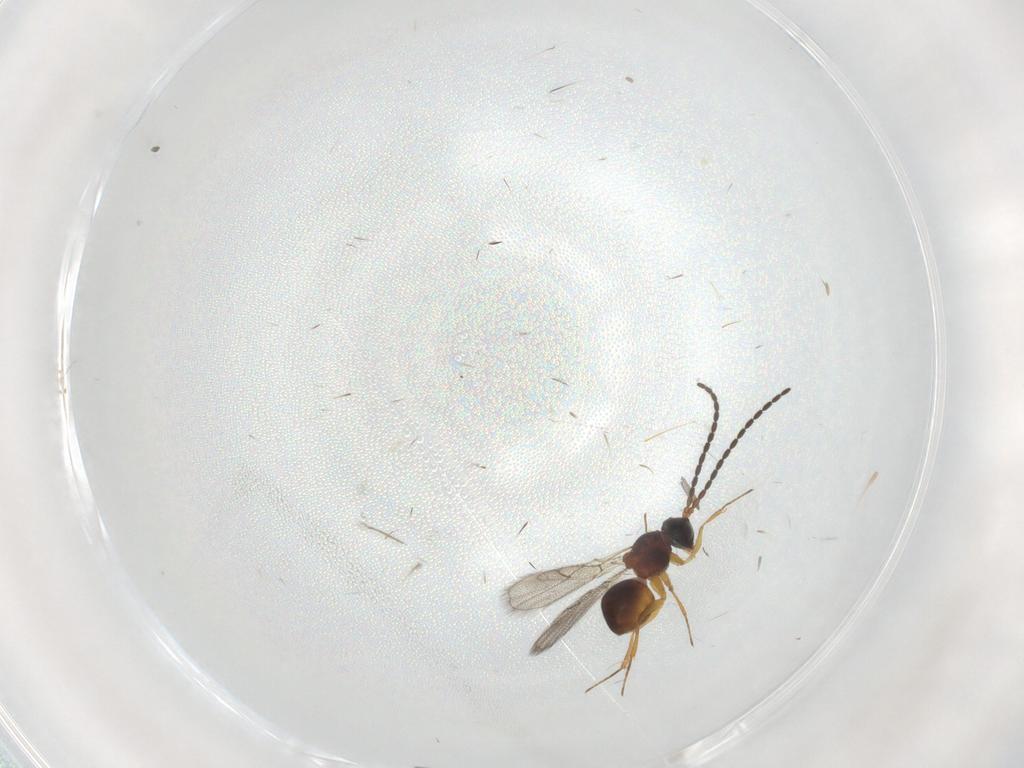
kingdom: Animalia
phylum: Arthropoda
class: Insecta
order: Hymenoptera
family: Figitidae
